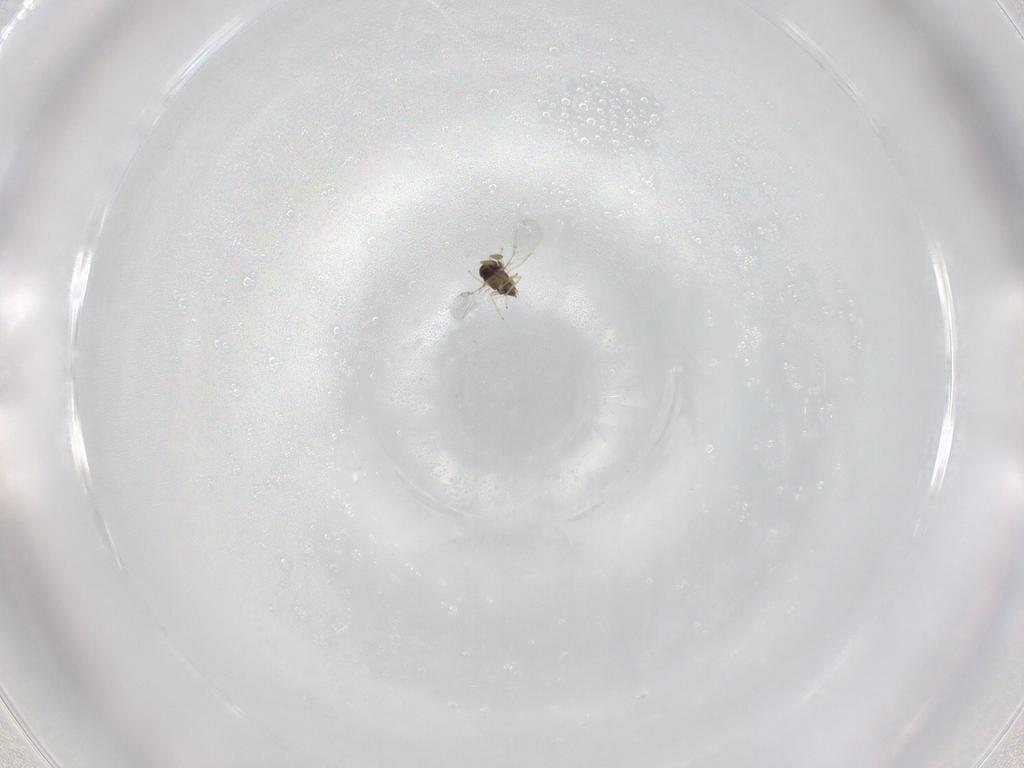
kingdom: Animalia
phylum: Arthropoda
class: Insecta
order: Hymenoptera
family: Encyrtidae
